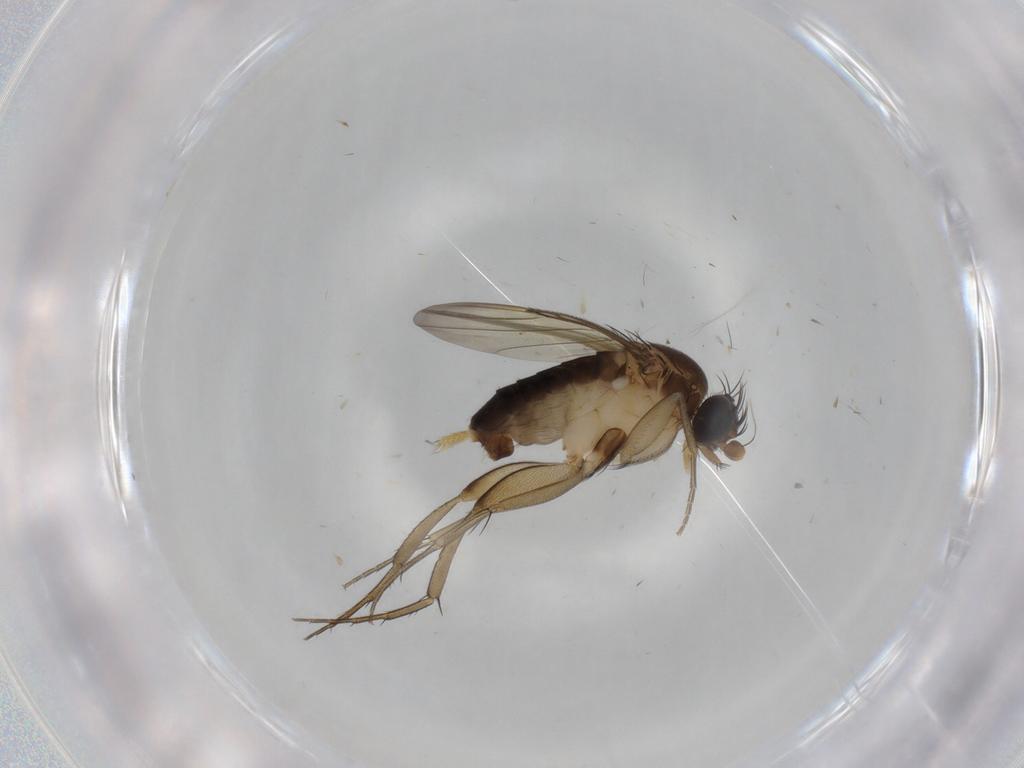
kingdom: Animalia
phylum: Arthropoda
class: Insecta
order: Diptera
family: Phoridae
